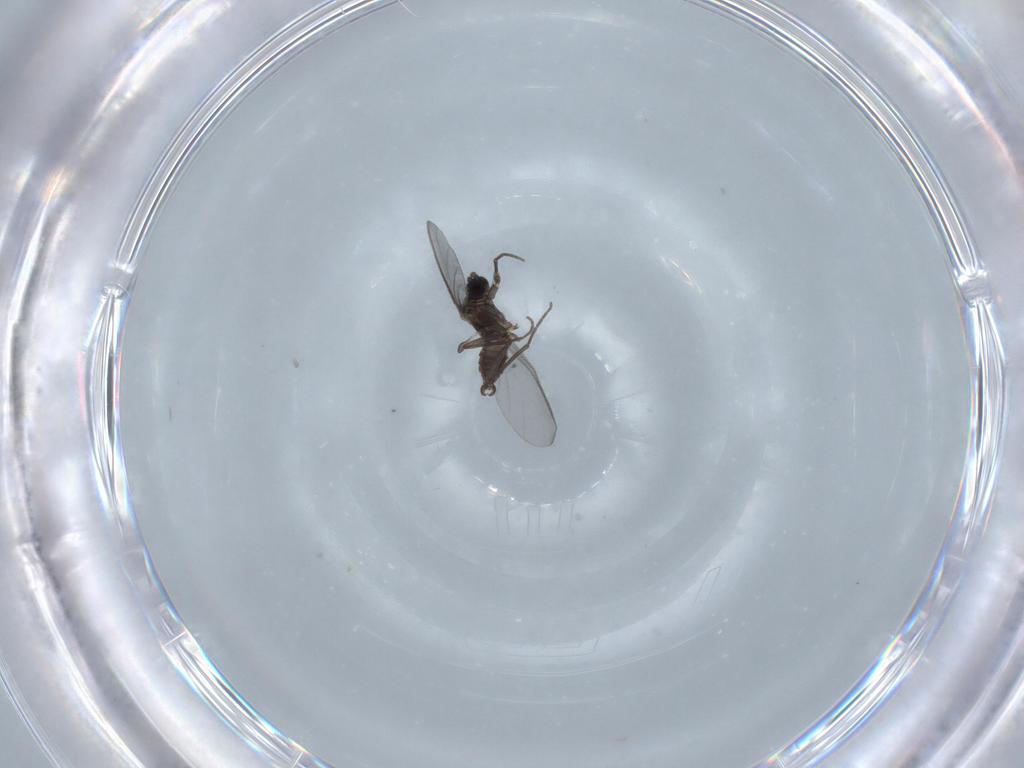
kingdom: Animalia
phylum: Arthropoda
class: Insecta
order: Diptera
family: Sciaridae
